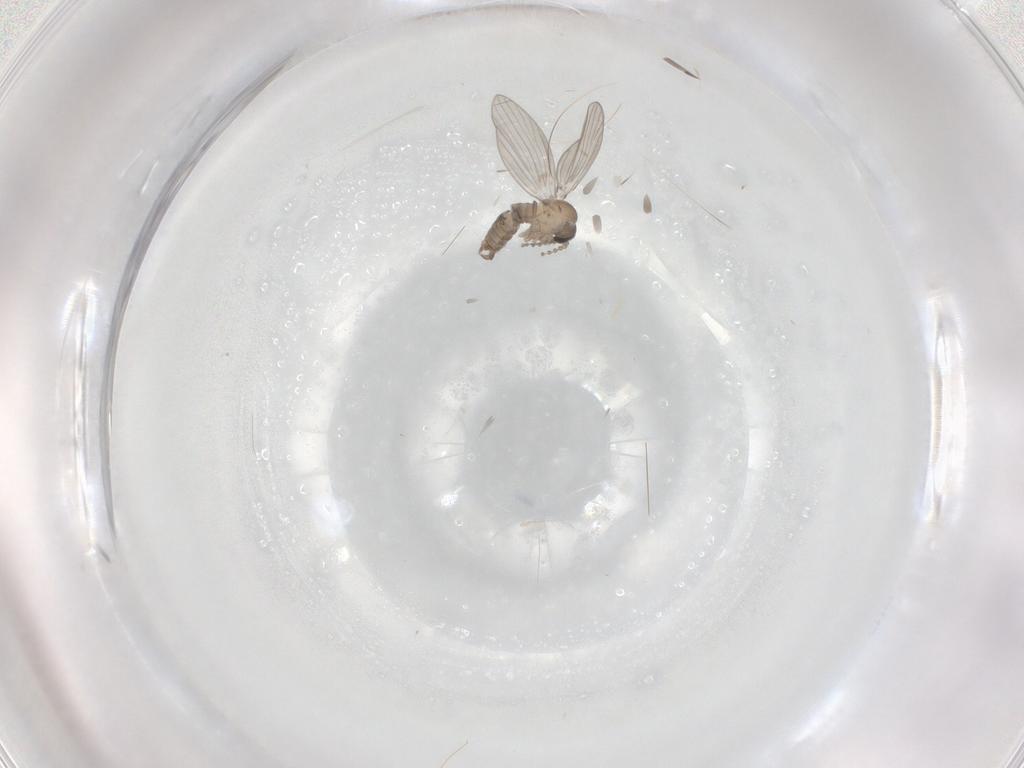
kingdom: Animalia
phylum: Arthropoda
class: Insecta
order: Diptera
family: Psychodidae
